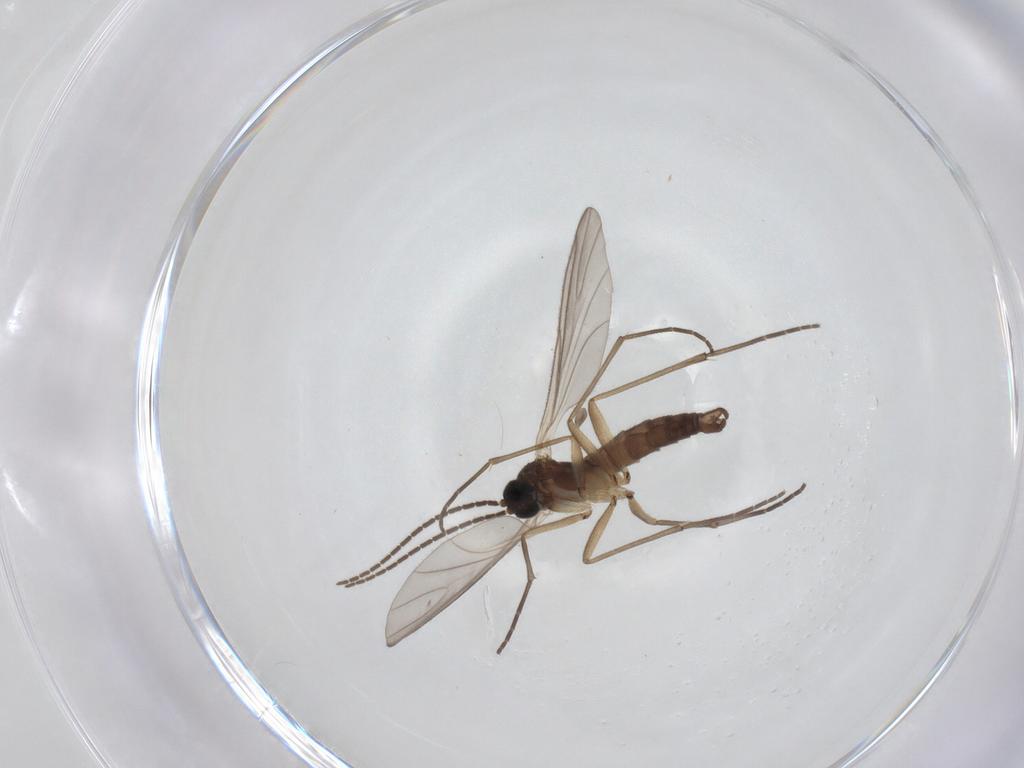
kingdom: Animalia
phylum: Arthropoda
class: Insecta
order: Diptera
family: Sciaridae
